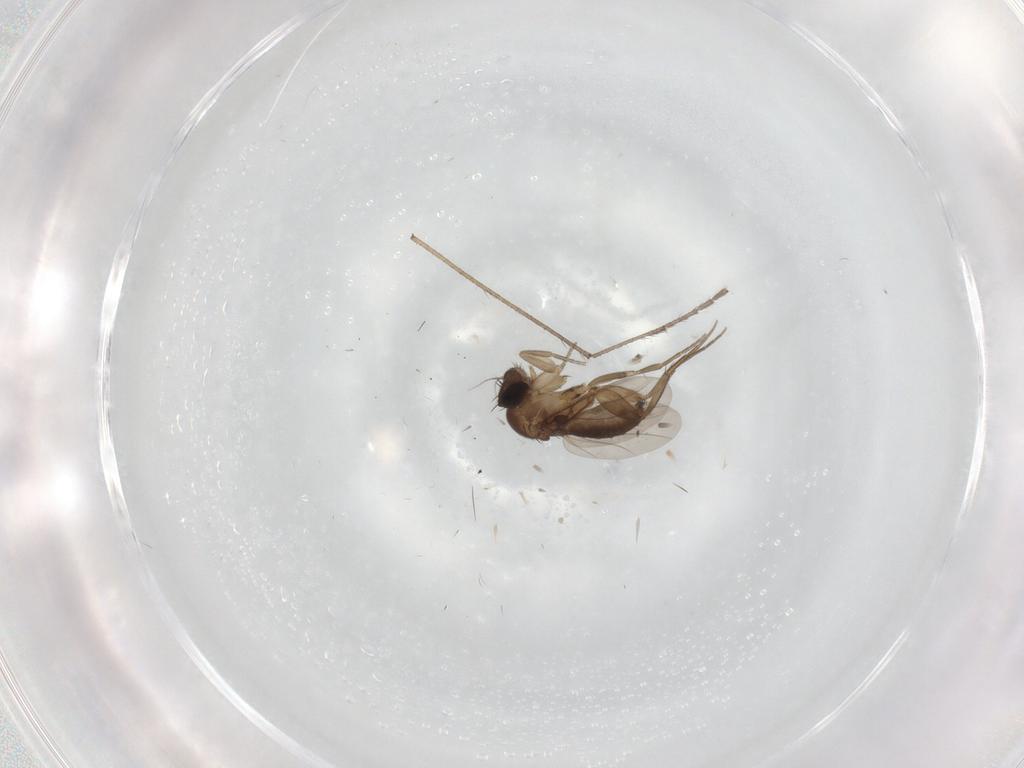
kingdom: Animalia
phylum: Arthropoda
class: Insecta
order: Diptera
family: Phoridae
